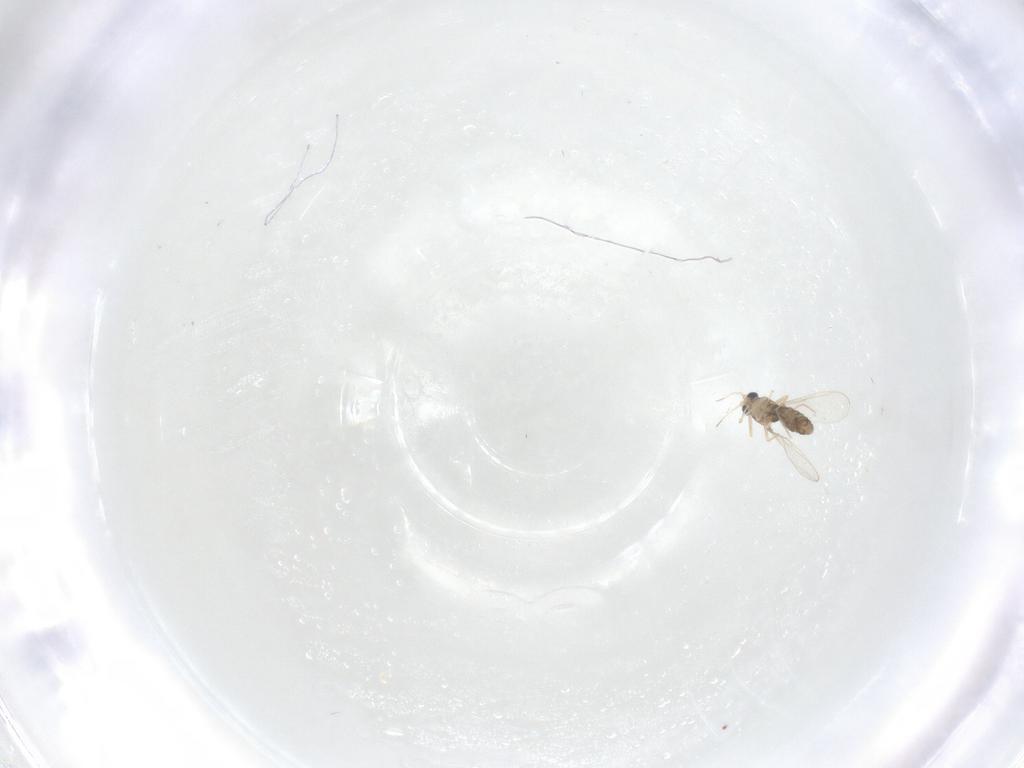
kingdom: Animalia
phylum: Arthropoda
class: Insecta
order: Diptera
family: Chironomidae
